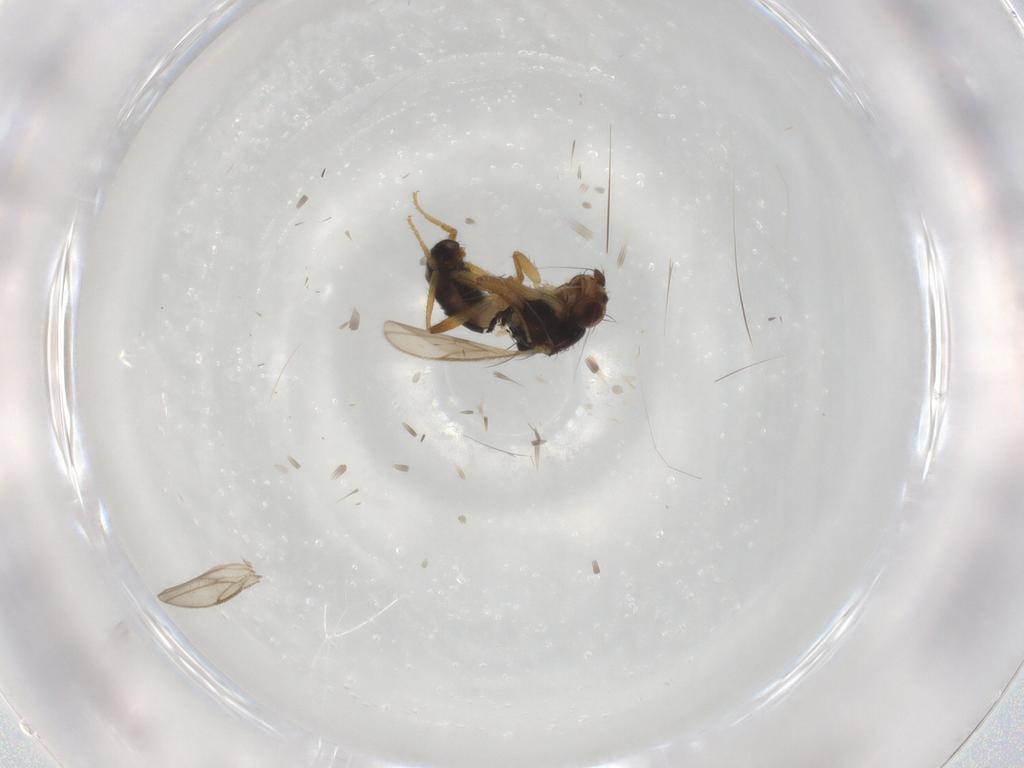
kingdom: Animalia
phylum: Arthropoda
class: Insecta
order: Diptera
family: Sphaeroceridae
